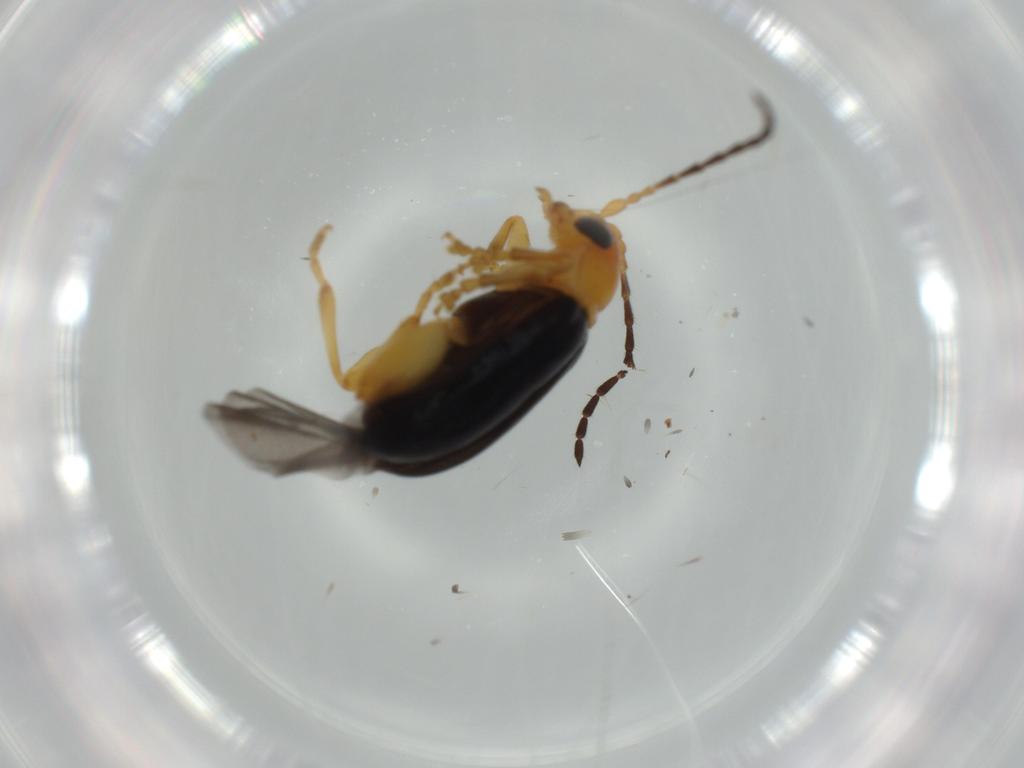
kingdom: Animalia
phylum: Arthropoda
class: Insecta
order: Coleoptera
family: Chrysomelidae
